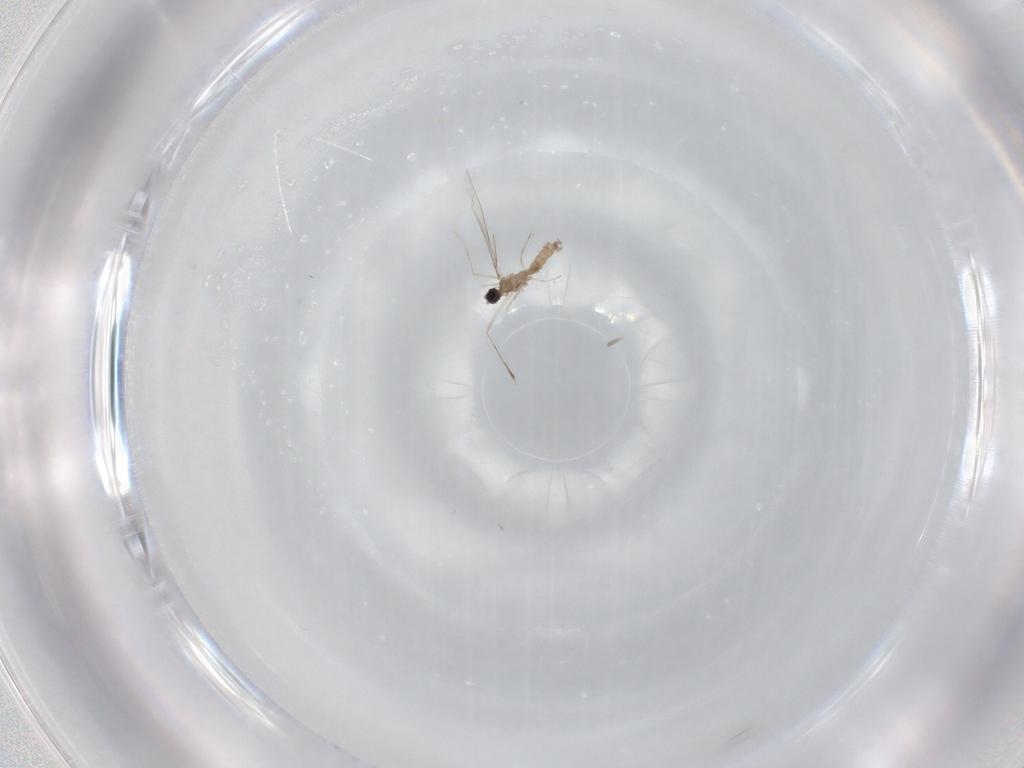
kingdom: Animalia
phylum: Arthropoda
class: Insecta
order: Diptera
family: Cecidomyiidae
